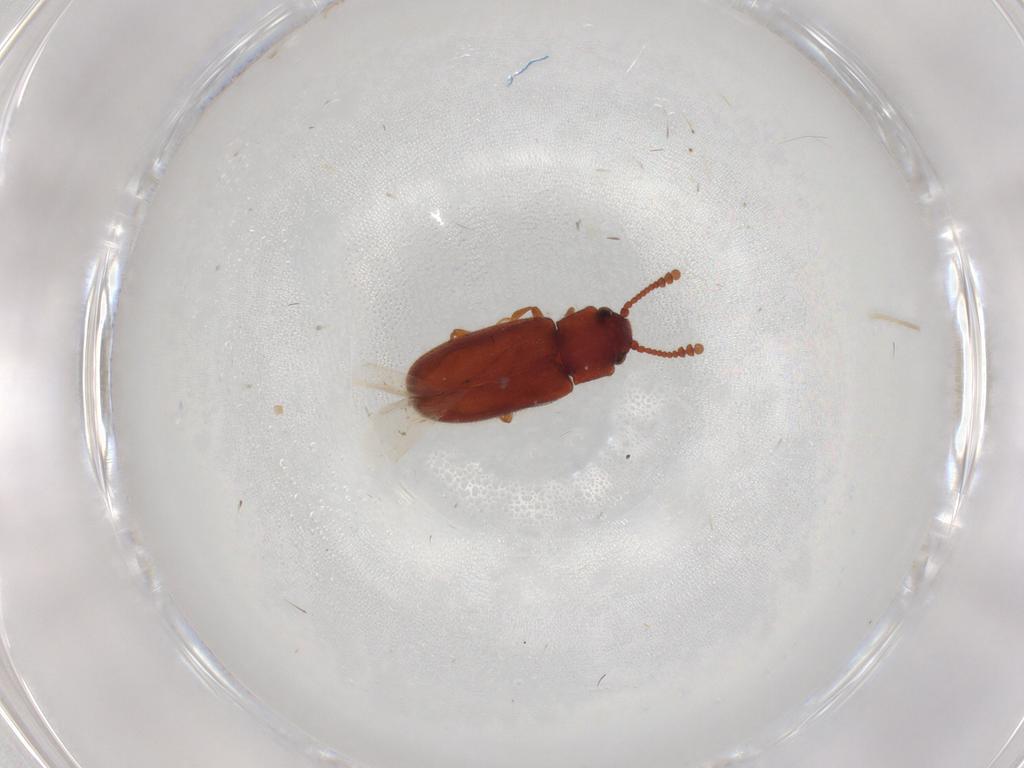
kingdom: Animalia
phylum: Arthropoda
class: Insecta
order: Coleoptera
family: Erotylidae
